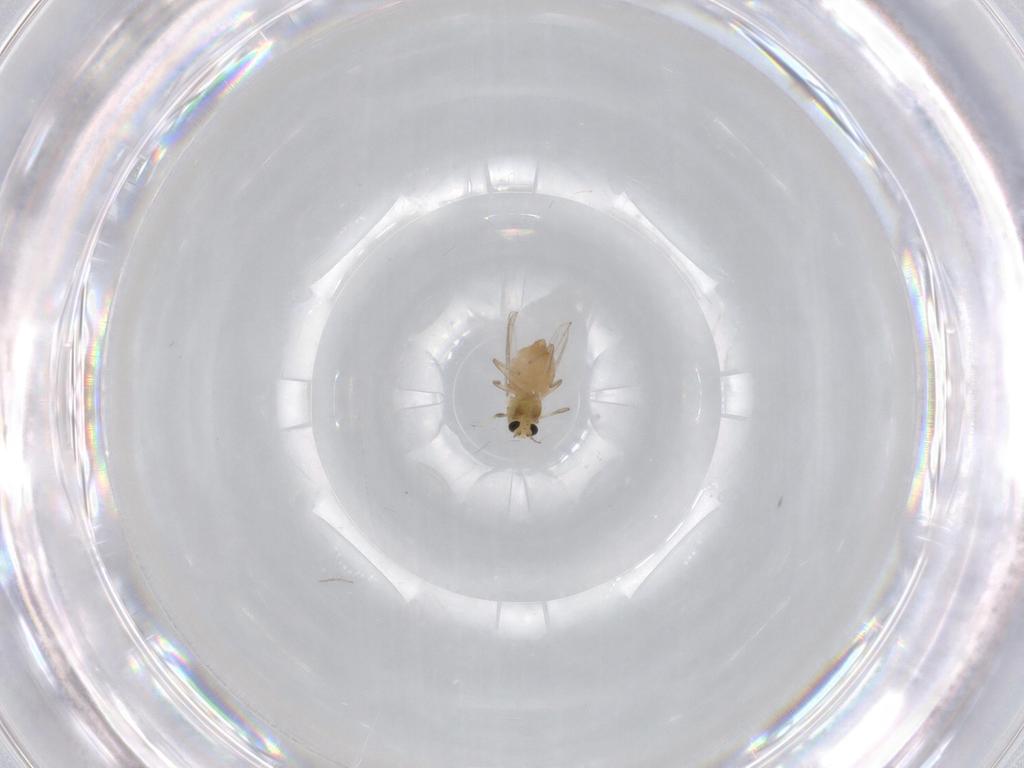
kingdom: Animalia
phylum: Arthropoda
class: Insecta
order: Diptera
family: Chironomidae
